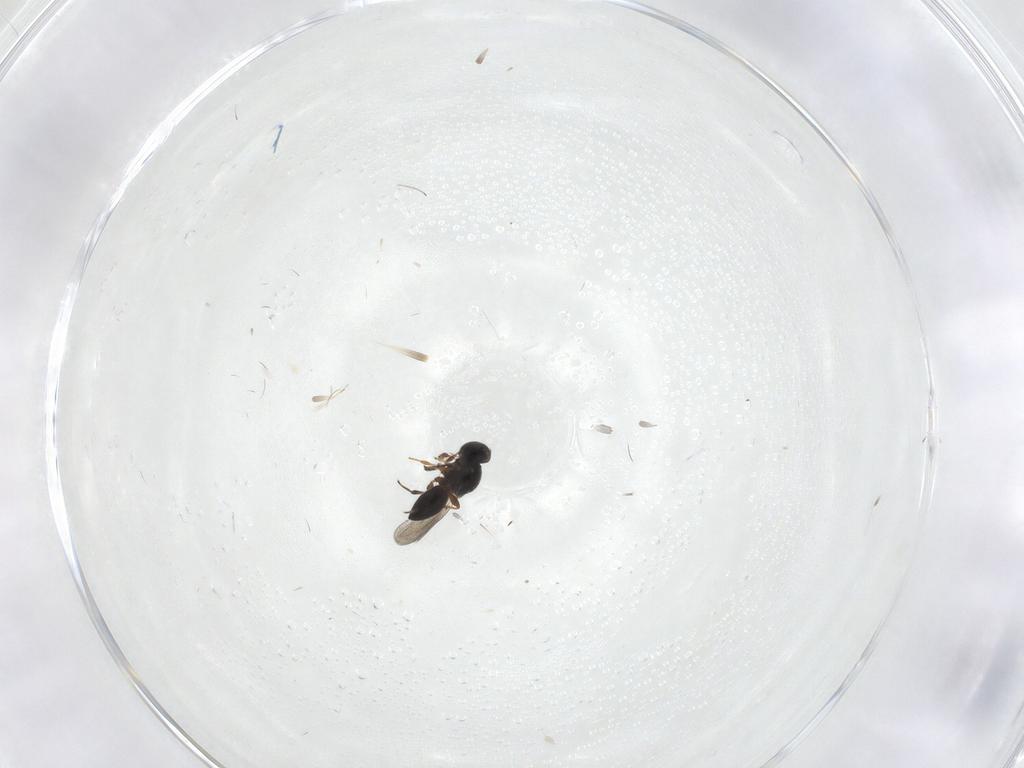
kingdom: Animalia
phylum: Arthropoda
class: Insecta
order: Hymenoptera
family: Platygastridae
